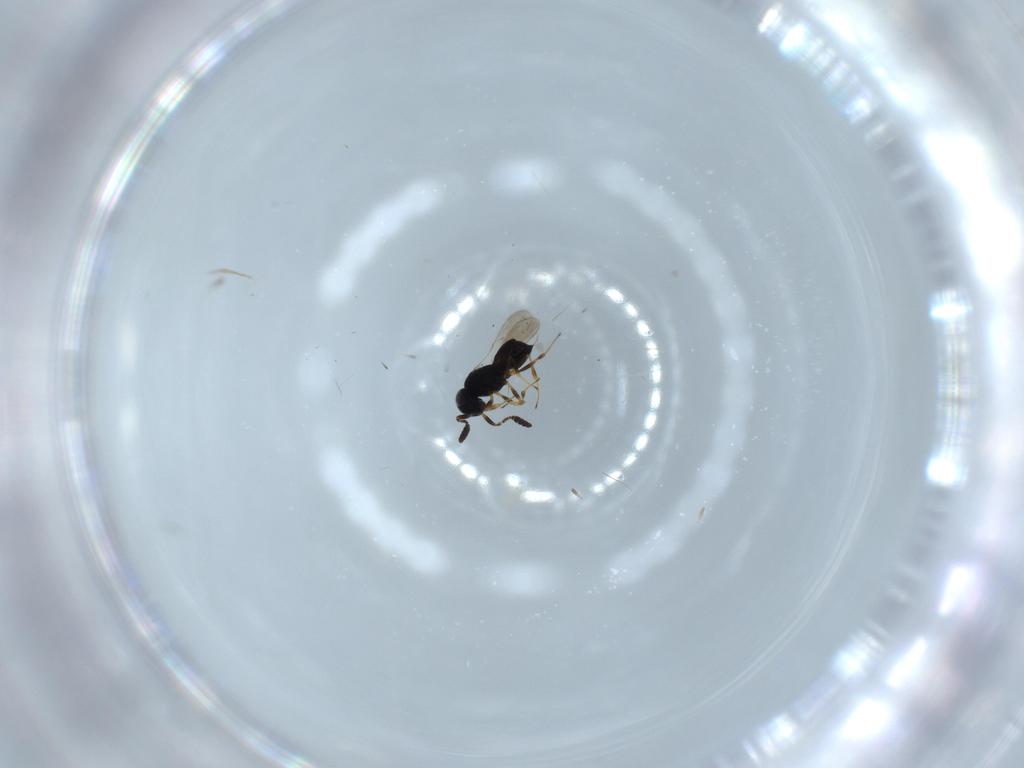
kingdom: Animalia
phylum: Arthropoda
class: Insecta
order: Hymenoptera
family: Scelionidae
